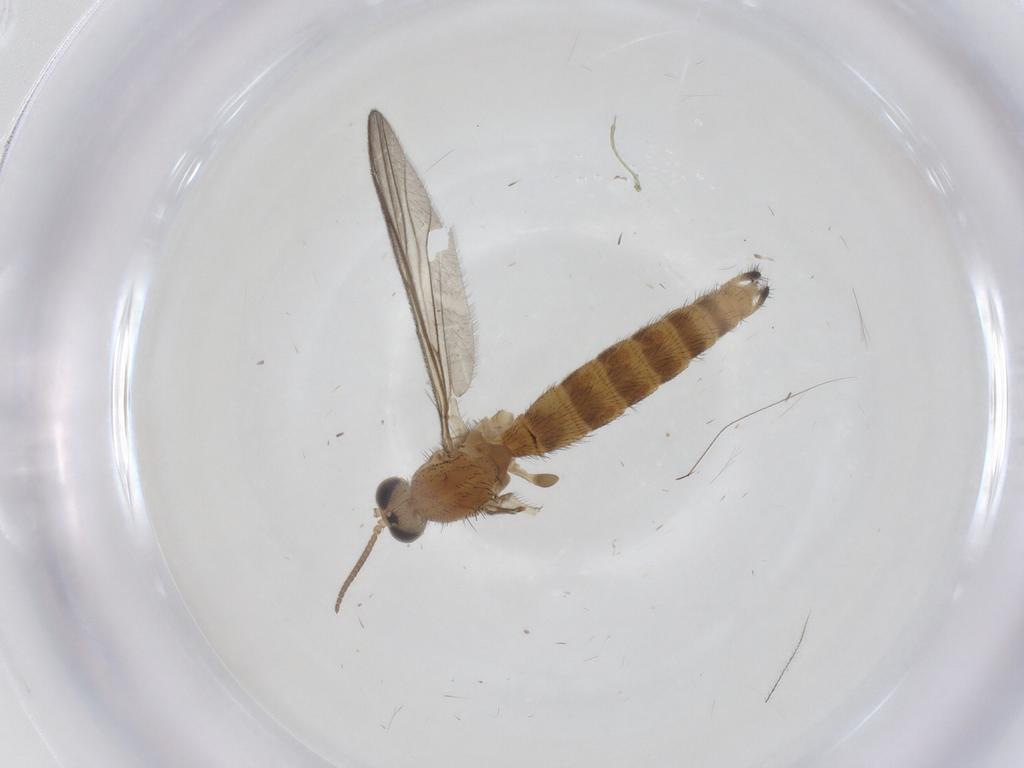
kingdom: Animalia
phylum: Arthropoda
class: Insecta
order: Diptera
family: Keroplatidae
